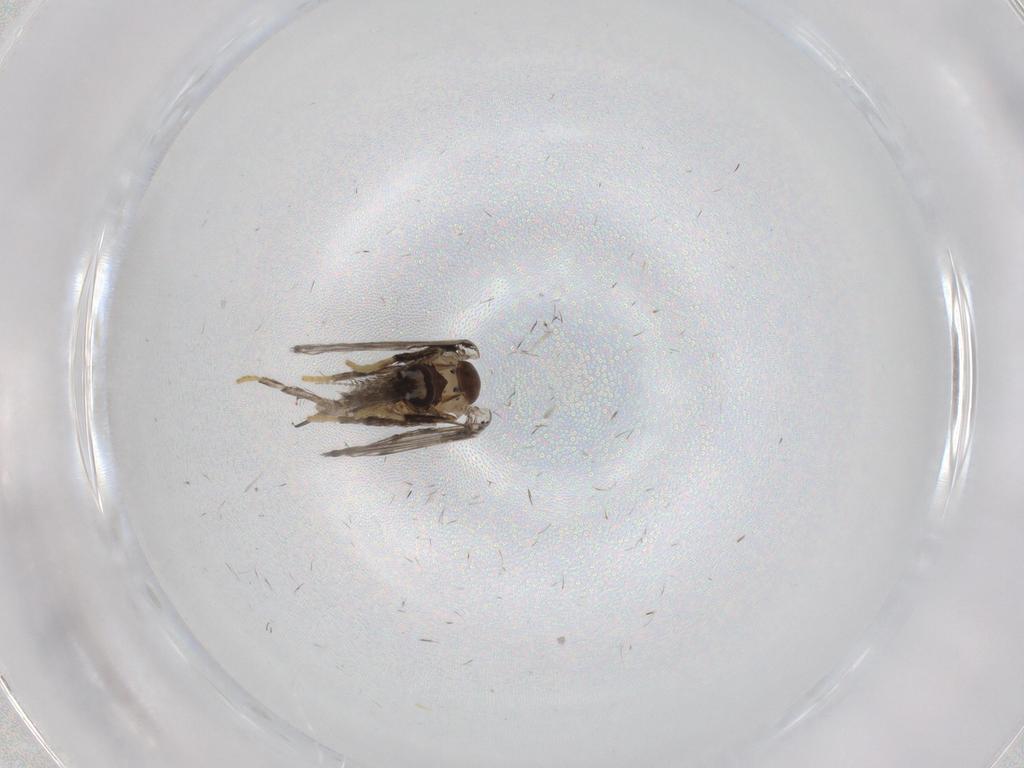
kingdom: Animalia
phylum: Arthropoda
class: Insecta
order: Diptera
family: Psychodidae
